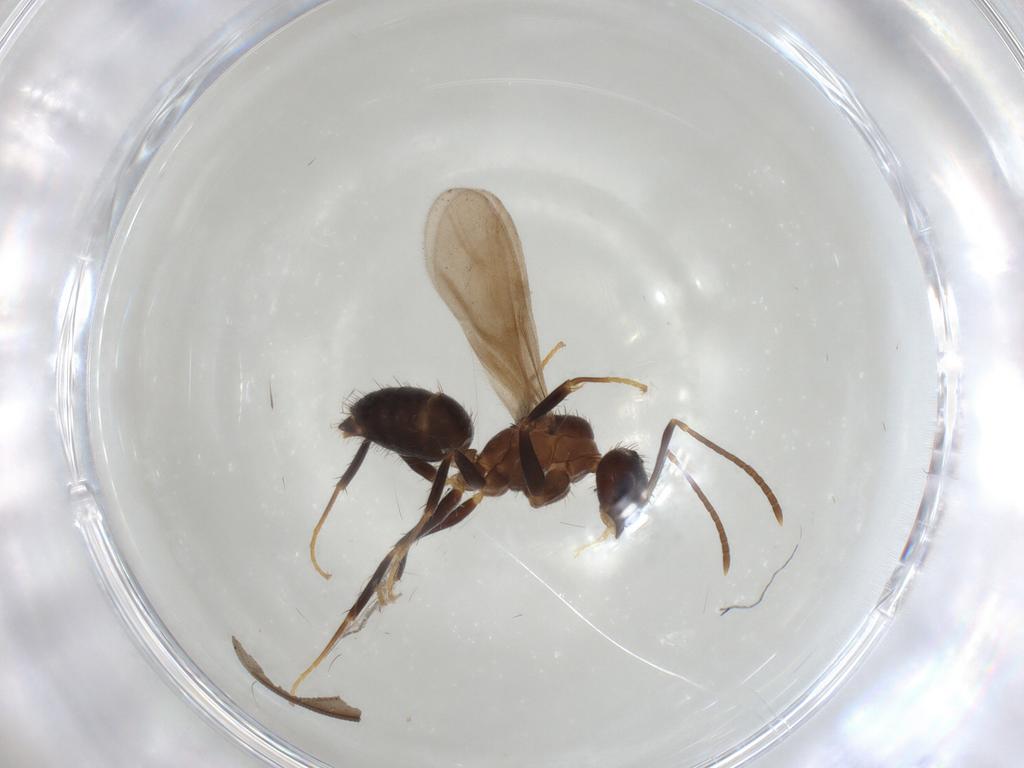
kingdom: Animalia
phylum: Arthropoda
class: Insecta
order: Hymenoptera
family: Formicidae
